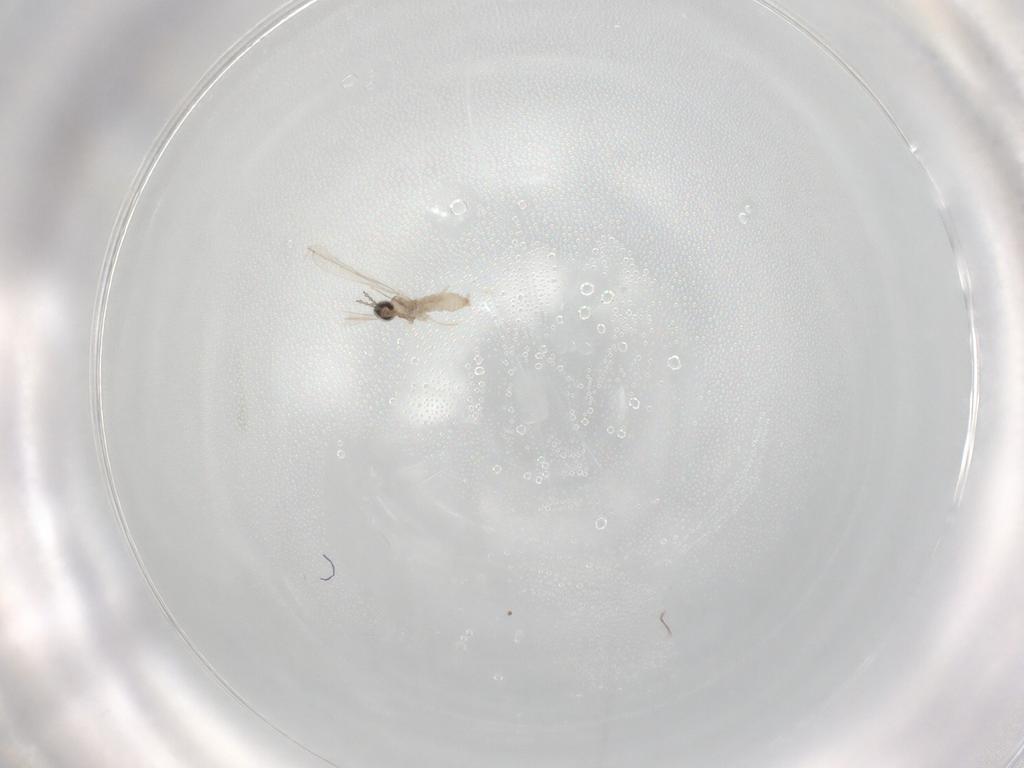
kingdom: Animalia
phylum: Arthropoda
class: Insecta
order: Diptera
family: Cecidomyiidae
